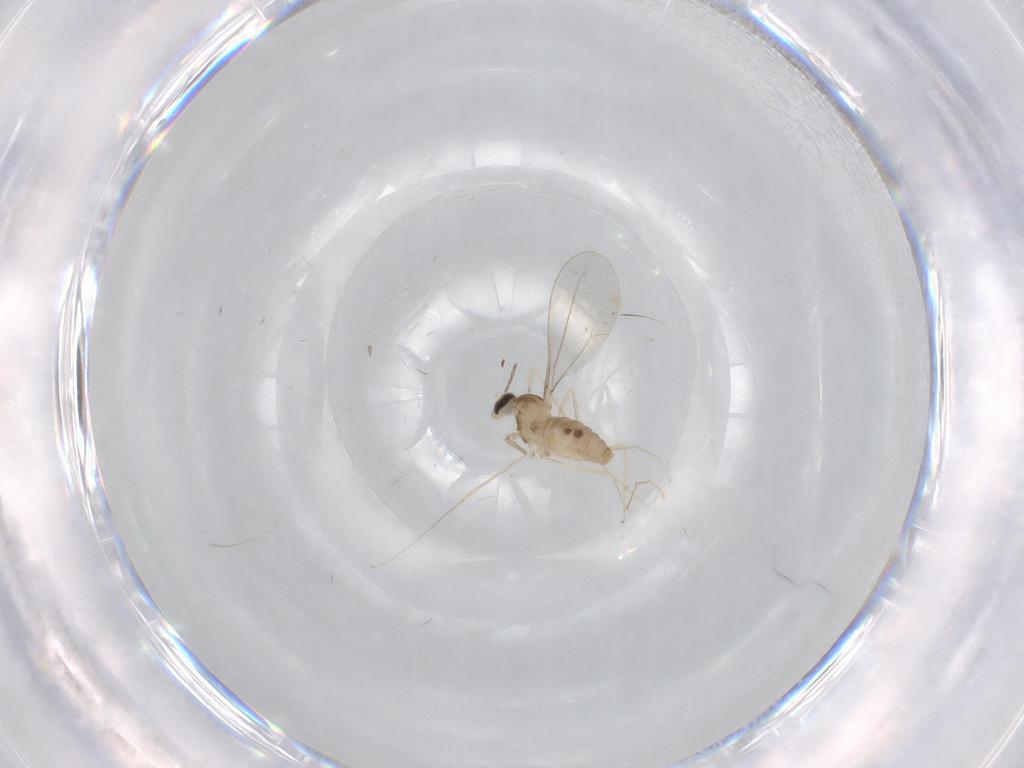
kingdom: Animalia
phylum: Arthropoda
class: Insecta
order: Diptera
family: Cecidomyiidae
